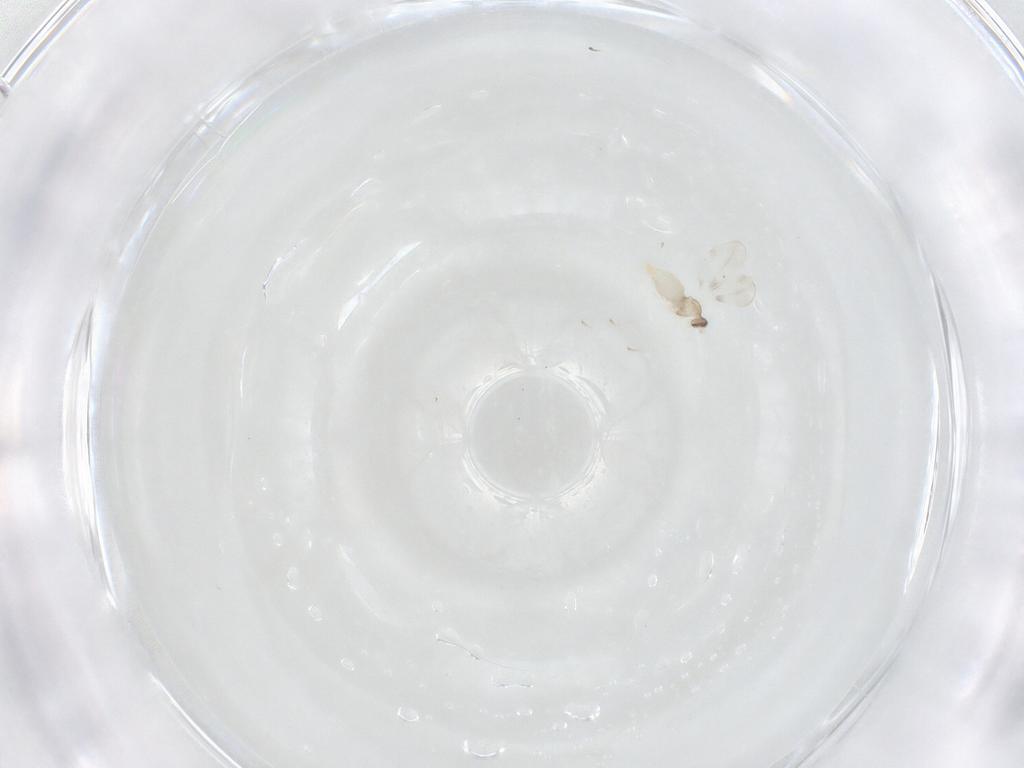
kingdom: Animalia
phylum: Arthropoda
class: Insecta
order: Diptera
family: Cecidomyiidae
